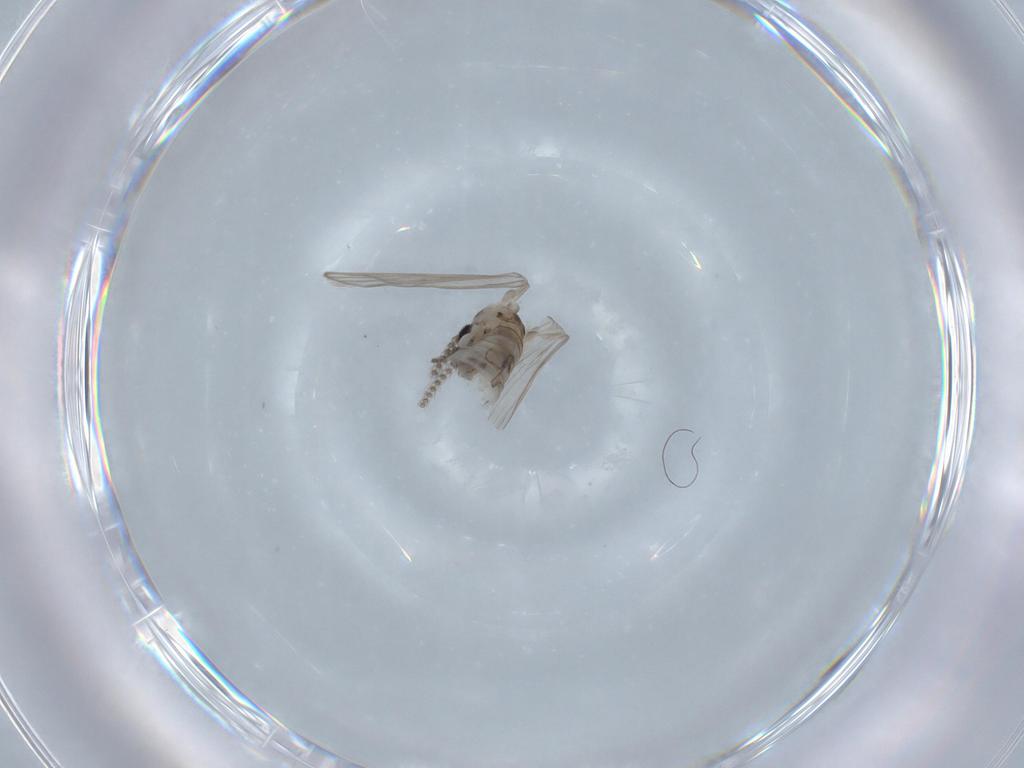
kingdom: Animalia
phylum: Arthropoda
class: Insecta
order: Diptera
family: Psychodidae
